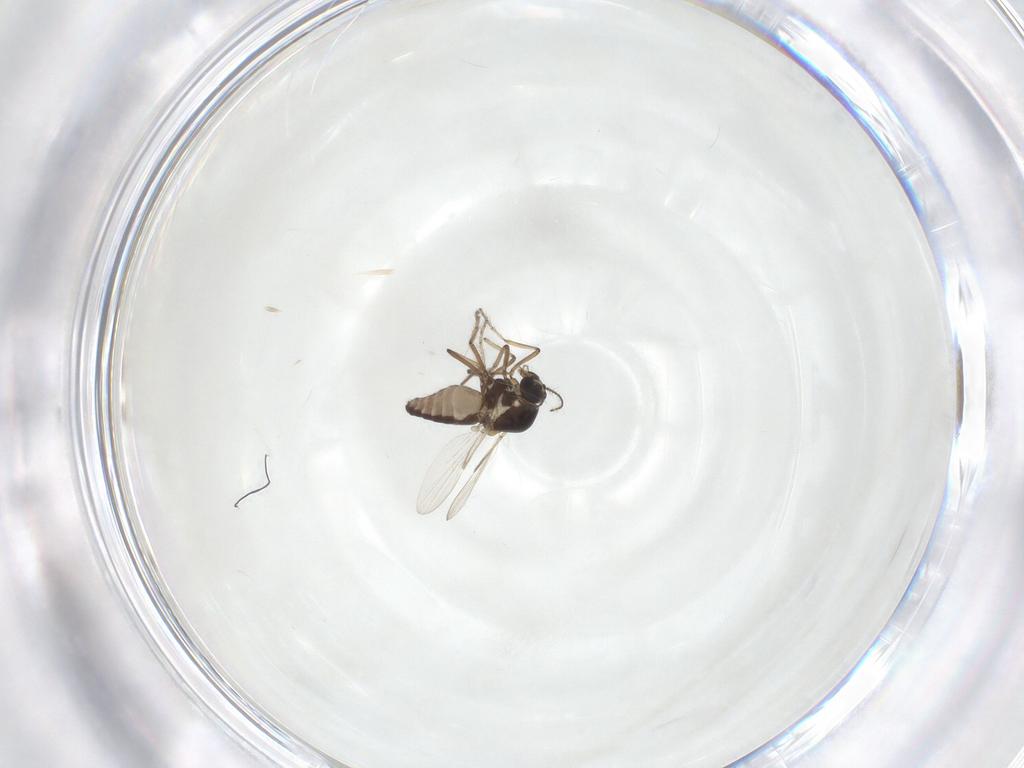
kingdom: Animalia
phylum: Arthropoda
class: Insecta
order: Diptera
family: Ceratopogonidae
